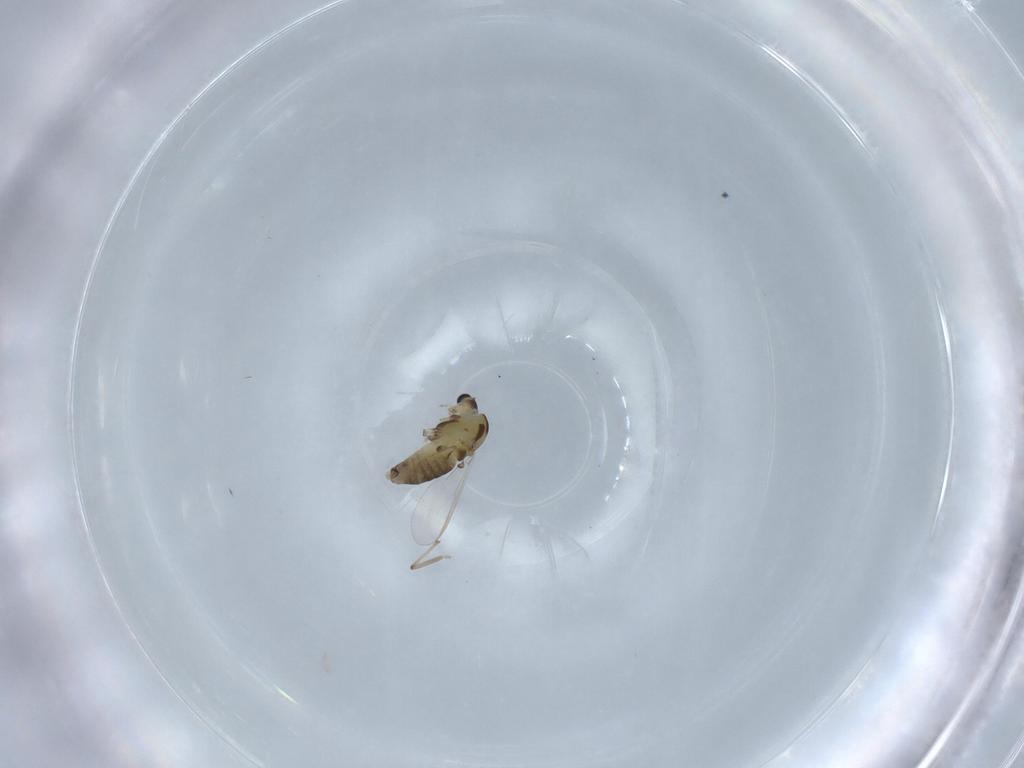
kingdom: Animalia
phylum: Arthropoda
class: Insecta
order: Diptera
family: Chironomidae
